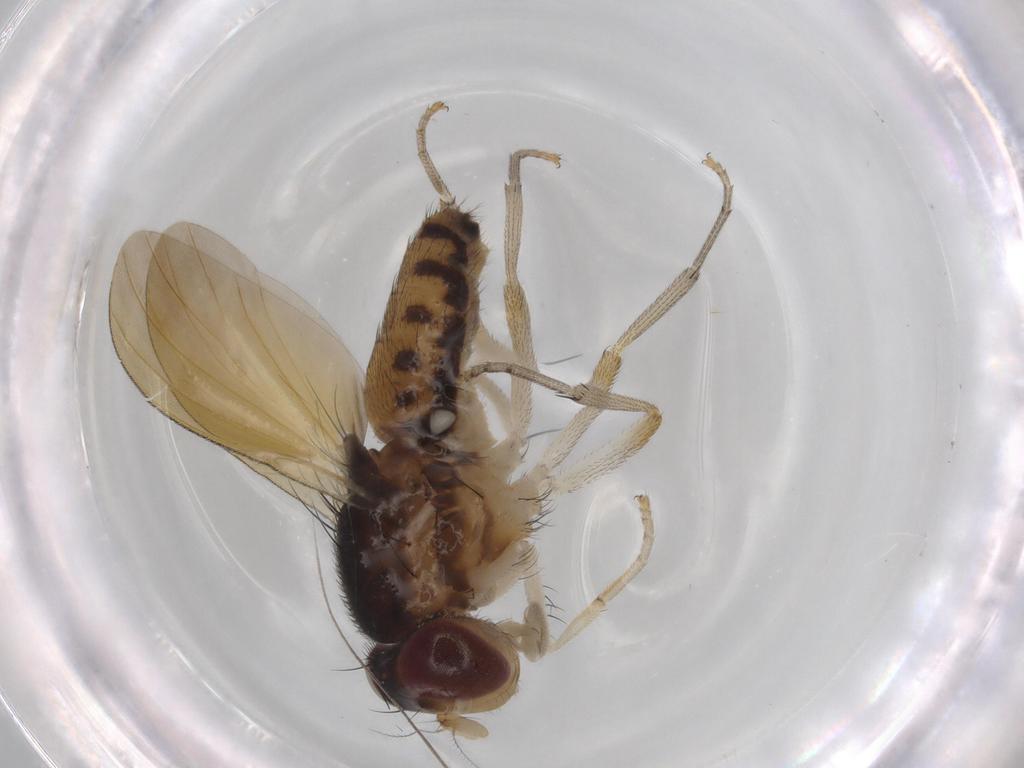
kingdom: Animalia
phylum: Arthropoda
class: Insecta
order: Diptera
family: Cecidomyiidae
